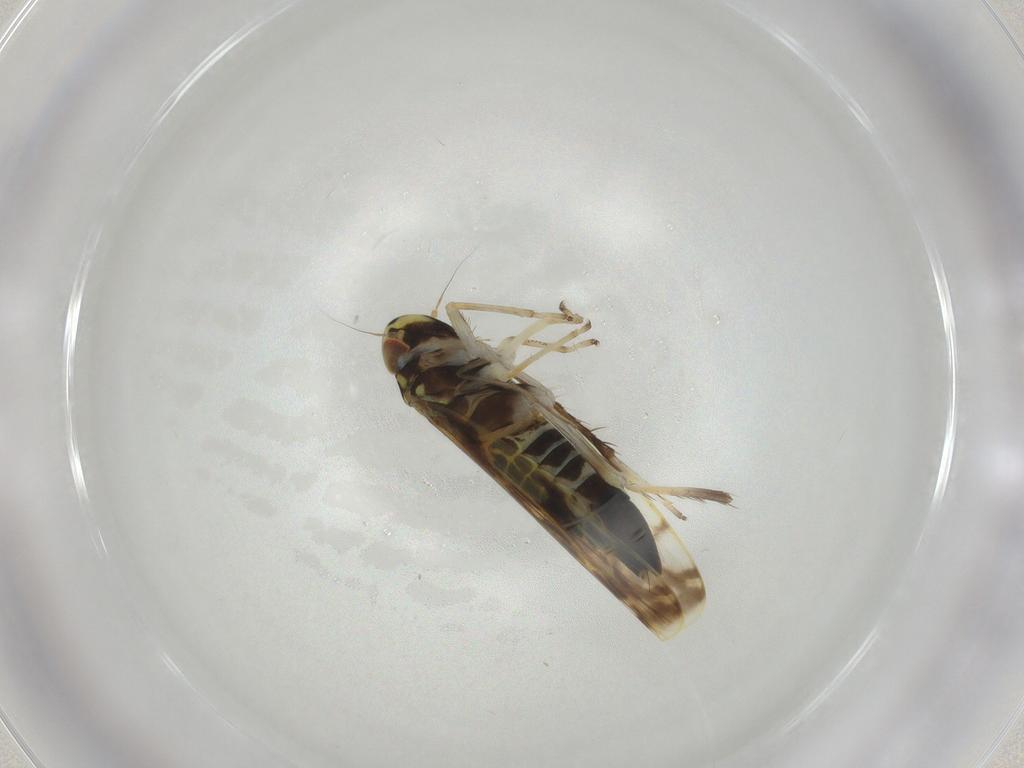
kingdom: Animalia
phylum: Arthropoda
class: Insecta
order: Hemiptera
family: Cicadellidae
